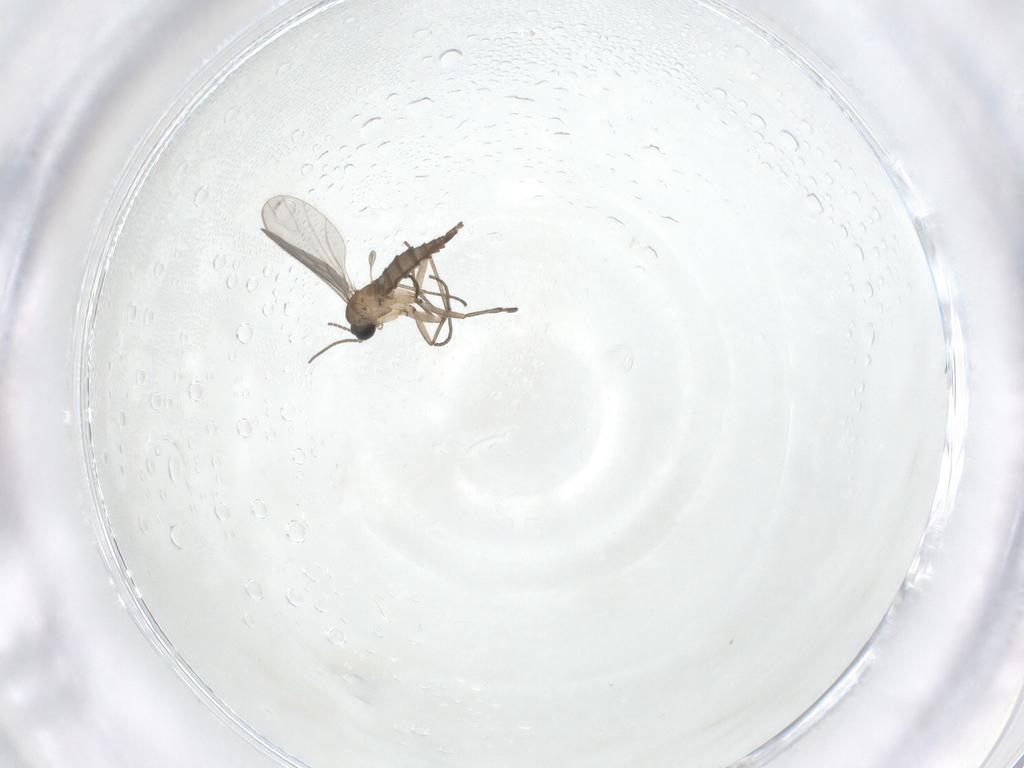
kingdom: Animalia
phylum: Arthropoda
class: Insecta
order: Diptera
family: Sciaridae
